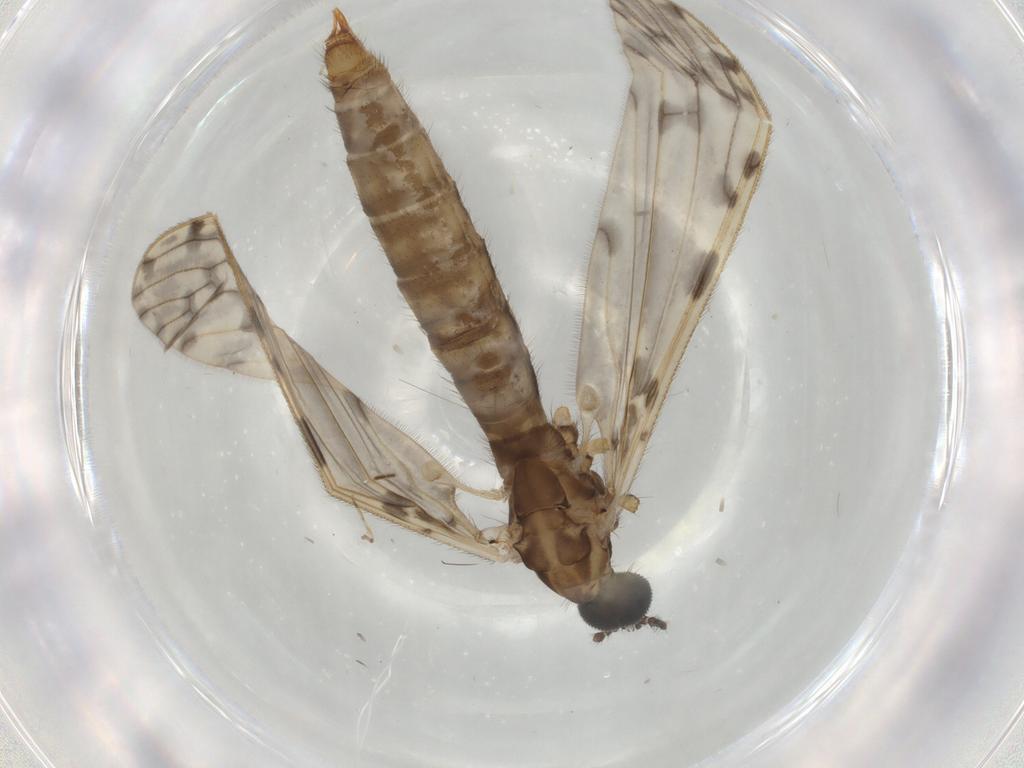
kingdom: Animalia
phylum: Arthropoda
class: Insecta
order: Diptera
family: Phoridae
